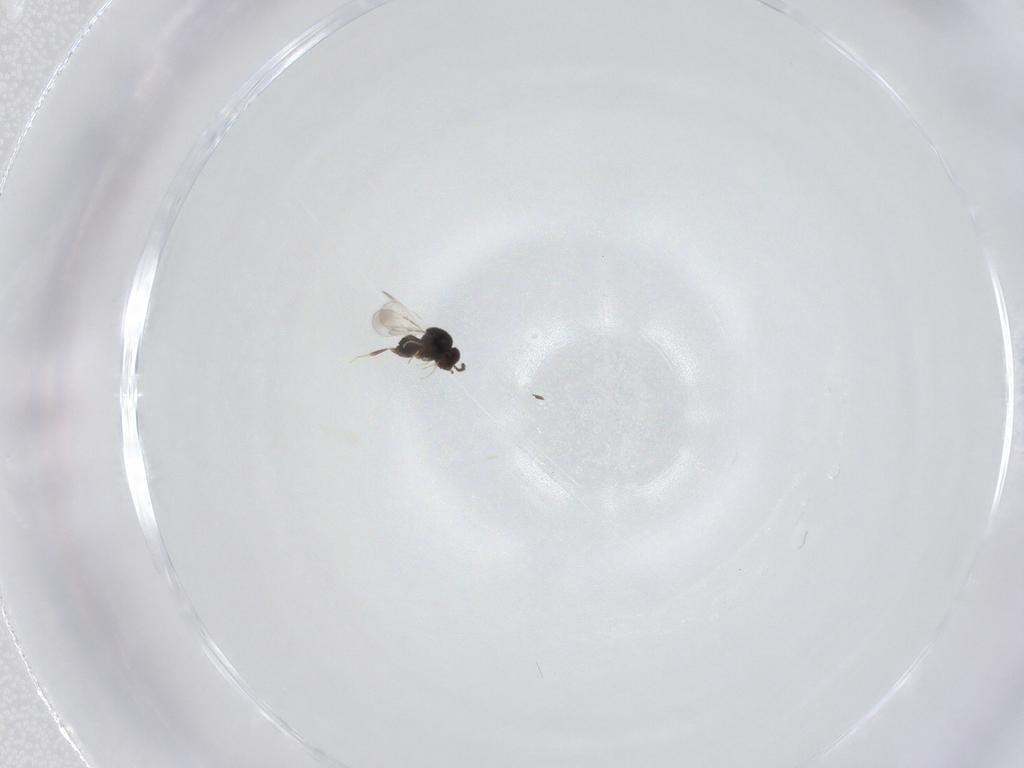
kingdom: Animalia
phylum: Arthropoda
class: Insecta
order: Diptera
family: Sciaridae
